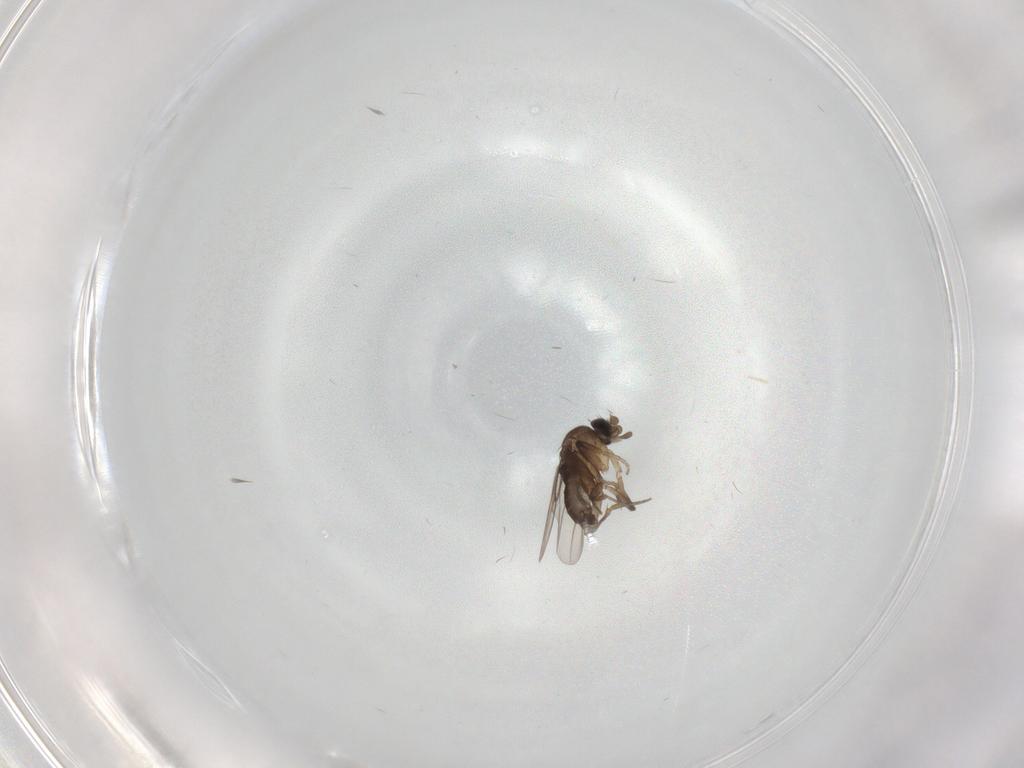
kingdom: Animalia
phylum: Arthropoda
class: Insecta
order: Diptera
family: Phoridae
